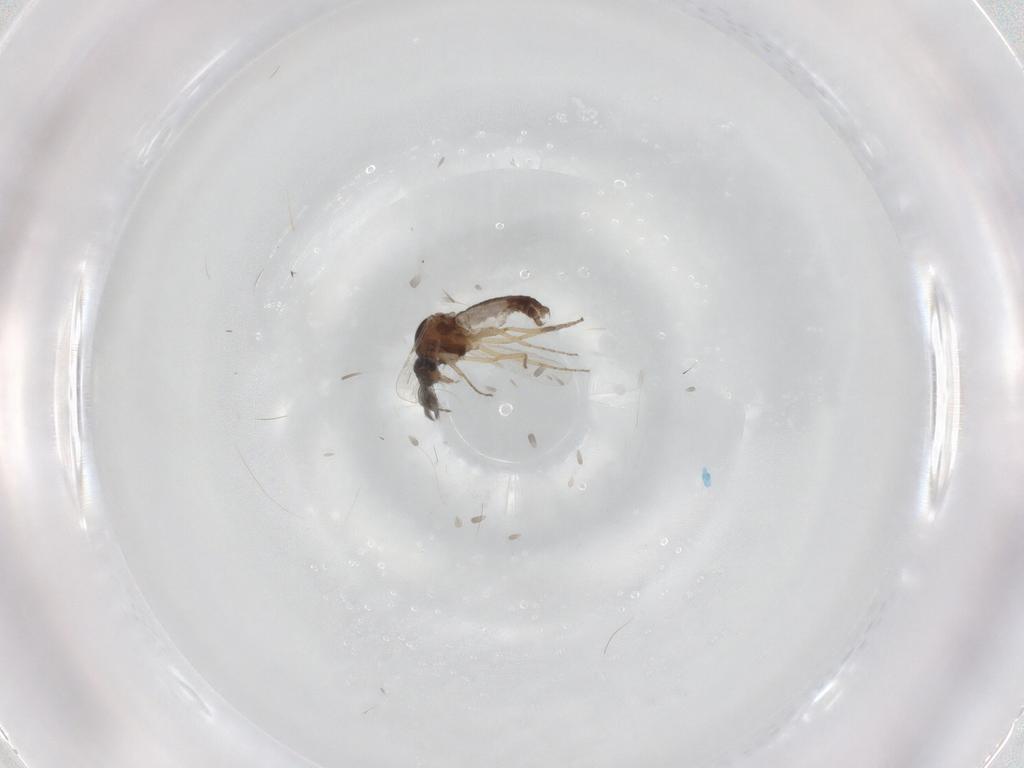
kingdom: Animalia
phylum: Arthropoda
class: Insecta
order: Diptera
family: Ceratopogonidae
